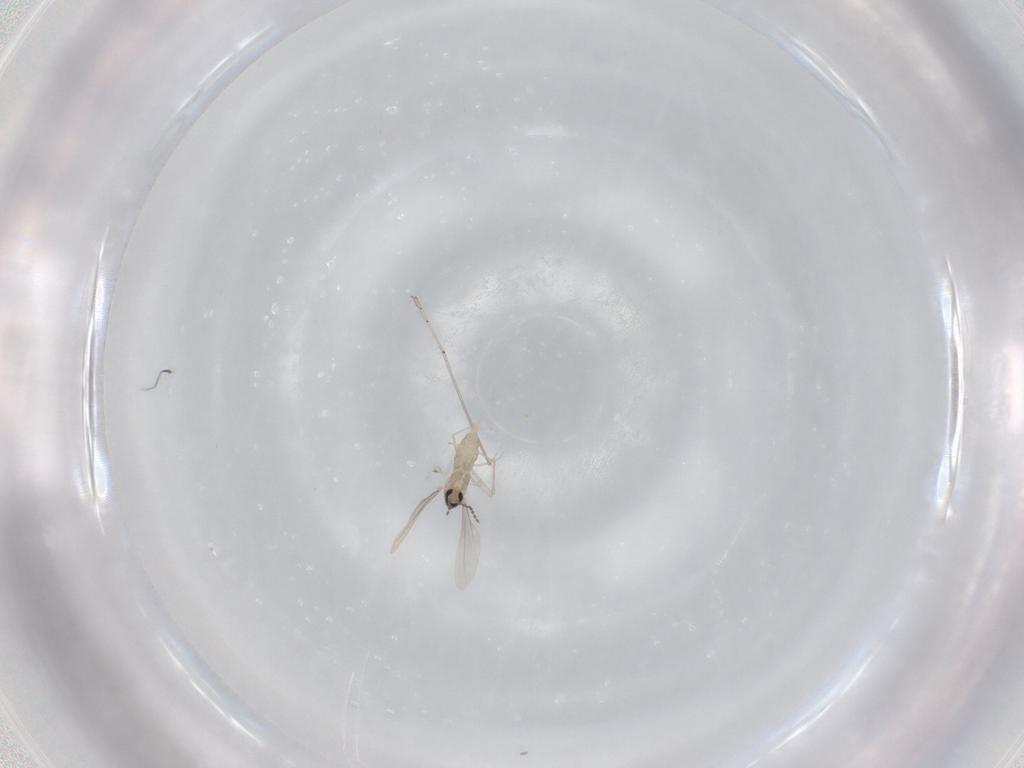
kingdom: Animalia
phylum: Arthropoda
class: Insecta
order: Diptera
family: Cecidomyiidae
